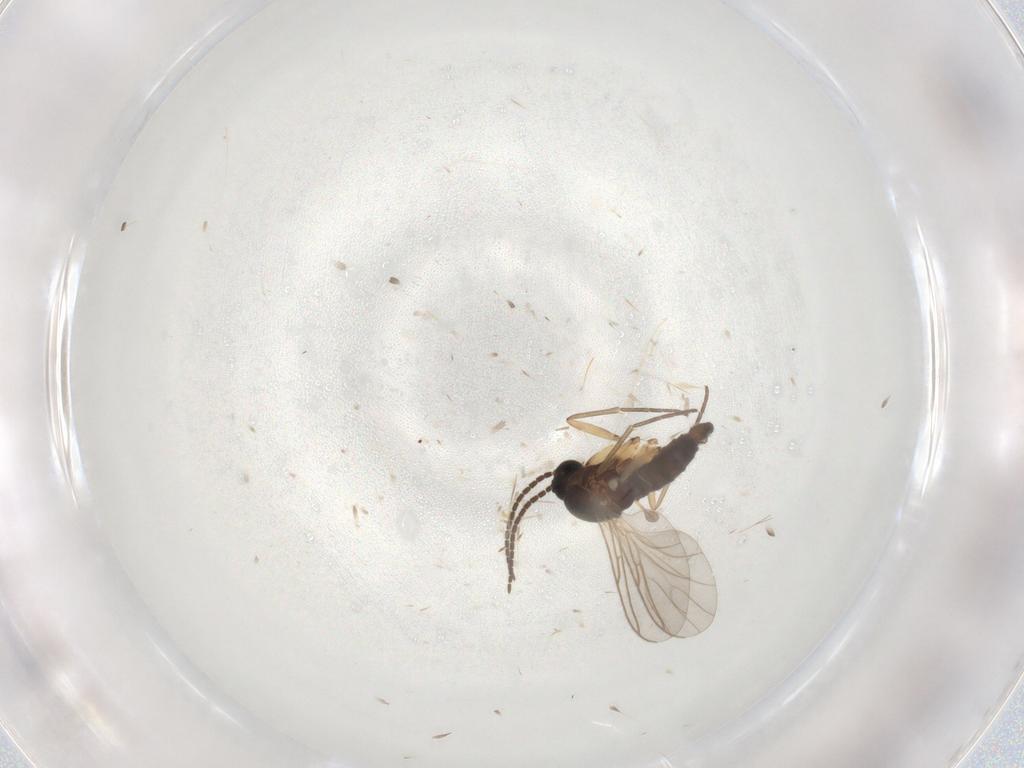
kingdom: Animalia
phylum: Arthropoda
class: Insecta
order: Diptera
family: Sciaridae
